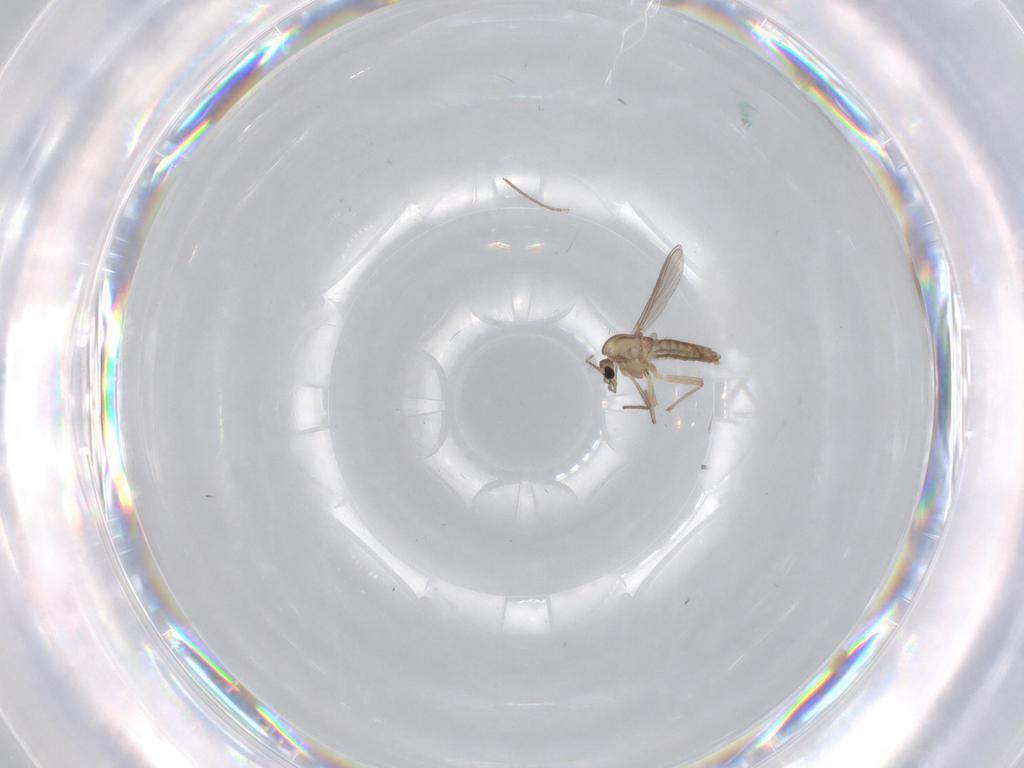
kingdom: Animalia
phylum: Arthropoda
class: Insecta
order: Diptera
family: Chironomidae
